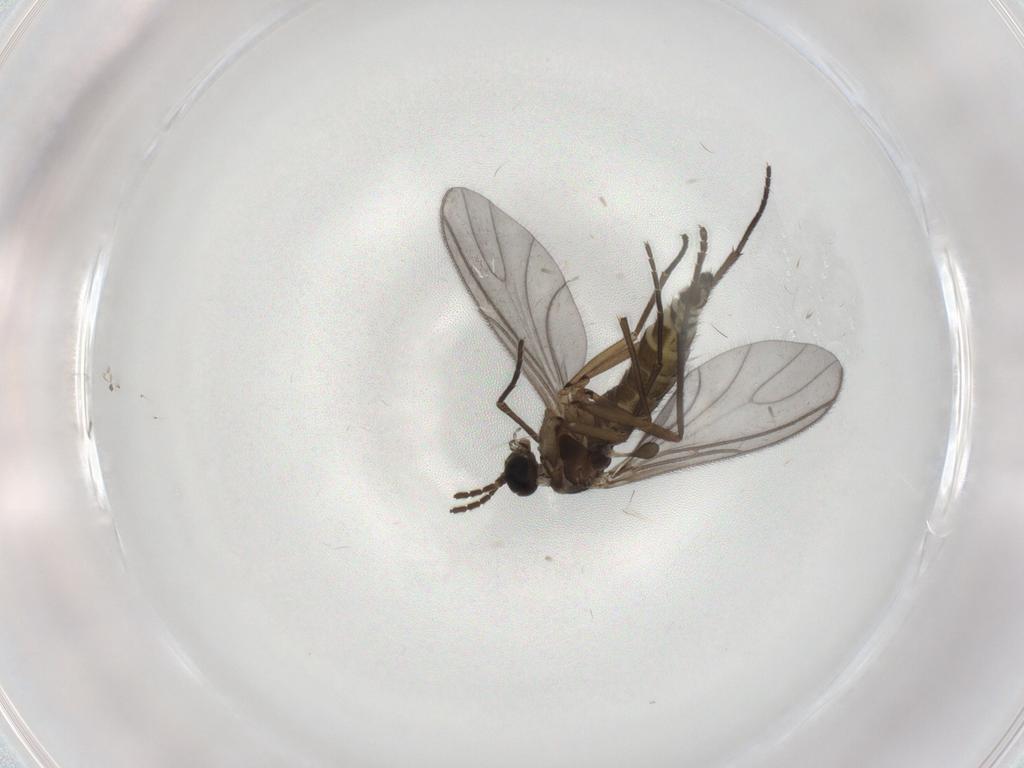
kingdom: Animalia
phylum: Arthropoda
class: Insecta
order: Diptera
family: Sciaridae
